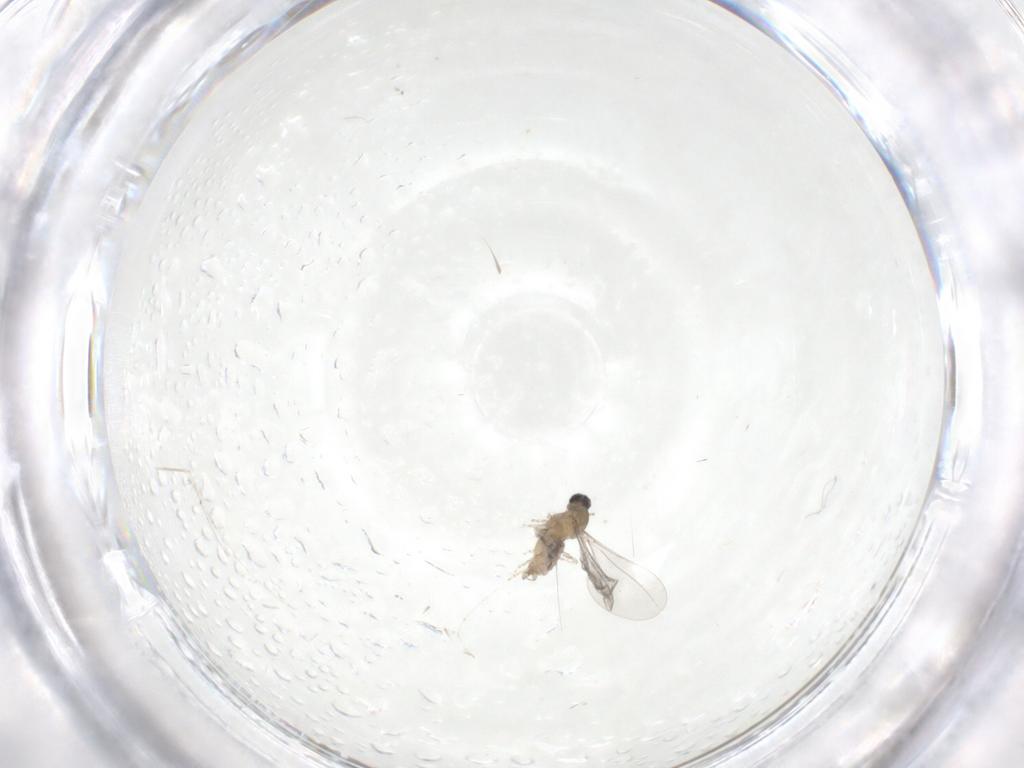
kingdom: Animalia
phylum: Arthropoda
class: Insecta
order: Diptera
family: Cecidomyiidae
